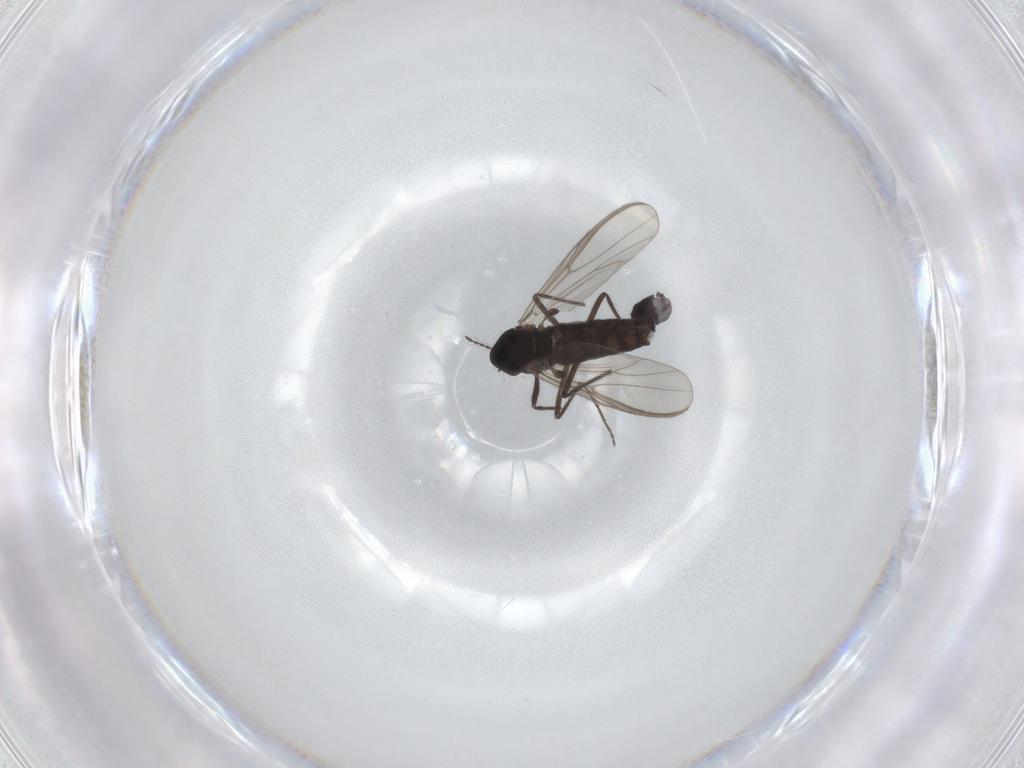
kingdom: Animalia
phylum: Arthropoda
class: Insecta
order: Diptera
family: Chironomidae
